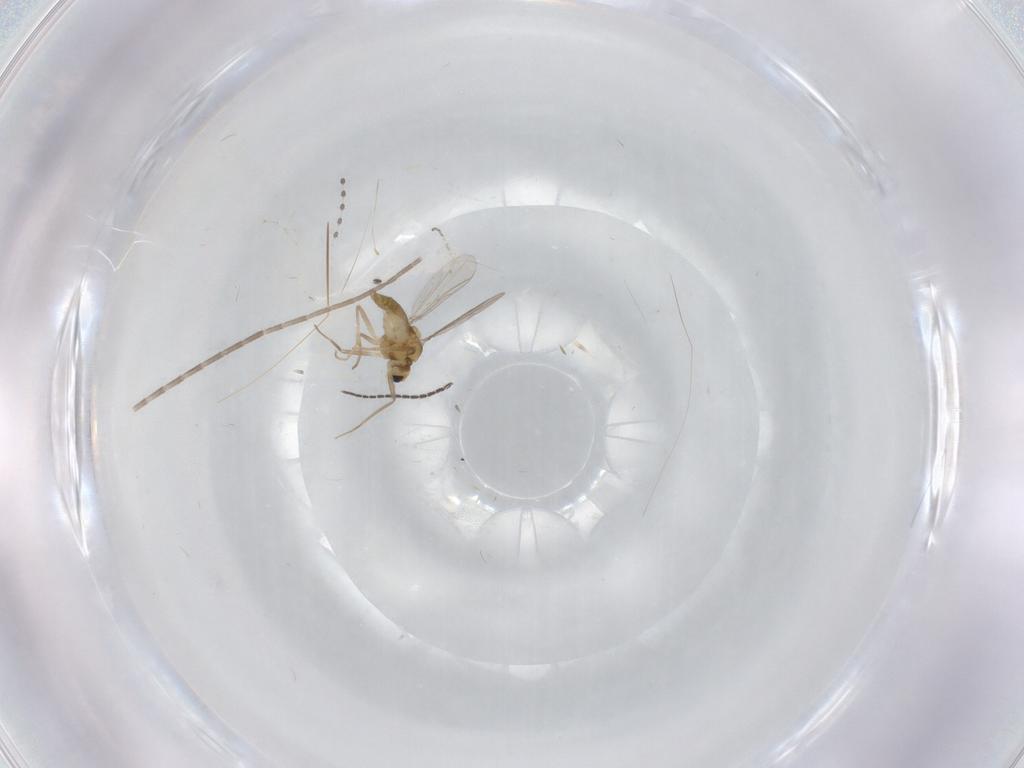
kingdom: Animalia
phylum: Arthropoda
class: Insecta
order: Diptera
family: Chironomidae
